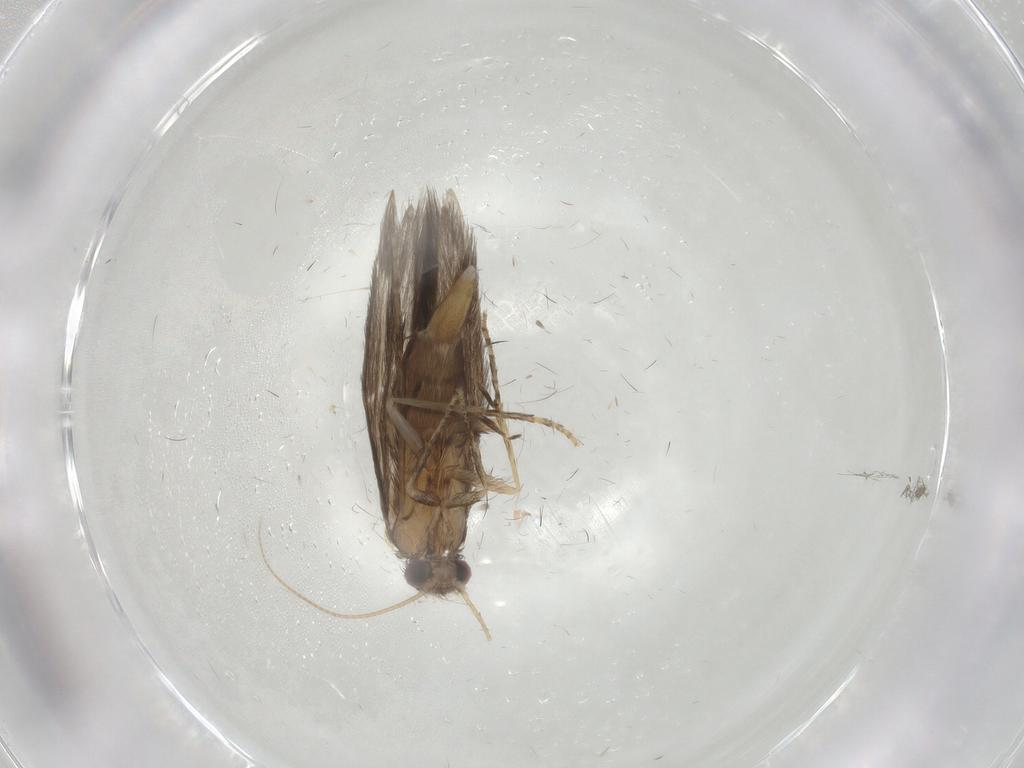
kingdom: Animalia
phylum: Arthropoda
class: Insecta
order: Trichoptera
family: Hydroptilidae
